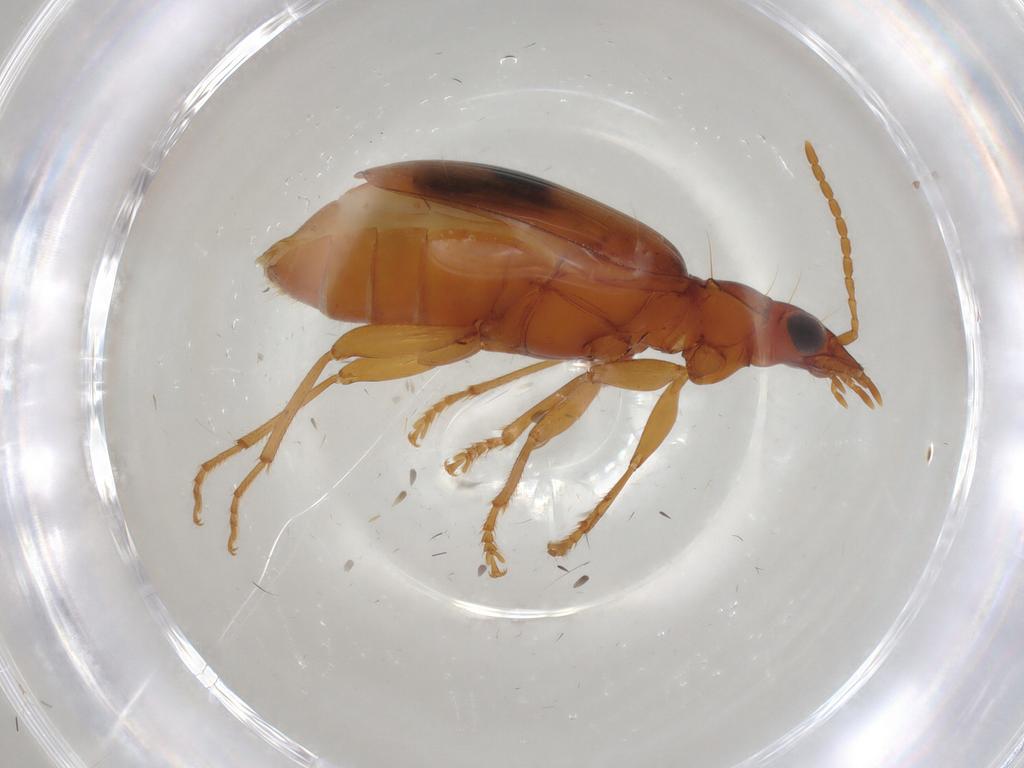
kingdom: Animalia
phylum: Arthropoda
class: Insecta
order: Coleoptera
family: Carabidae
